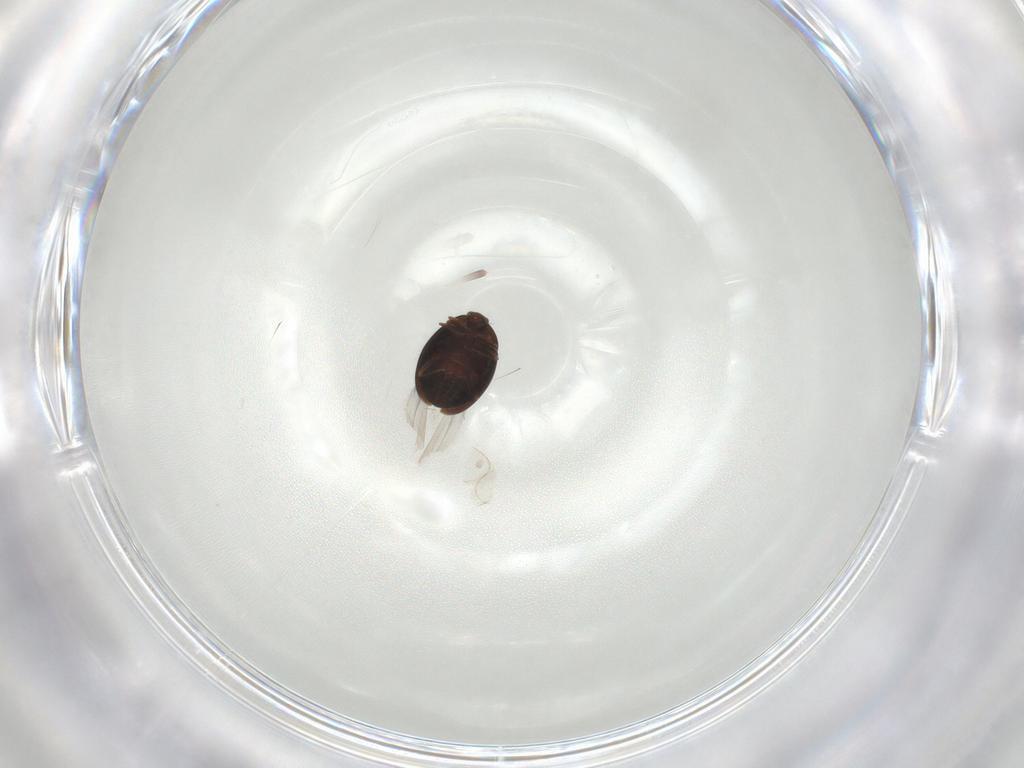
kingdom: Animalia
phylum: Arthropoda
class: Insecta
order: Coleoptera
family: Corylophidae
